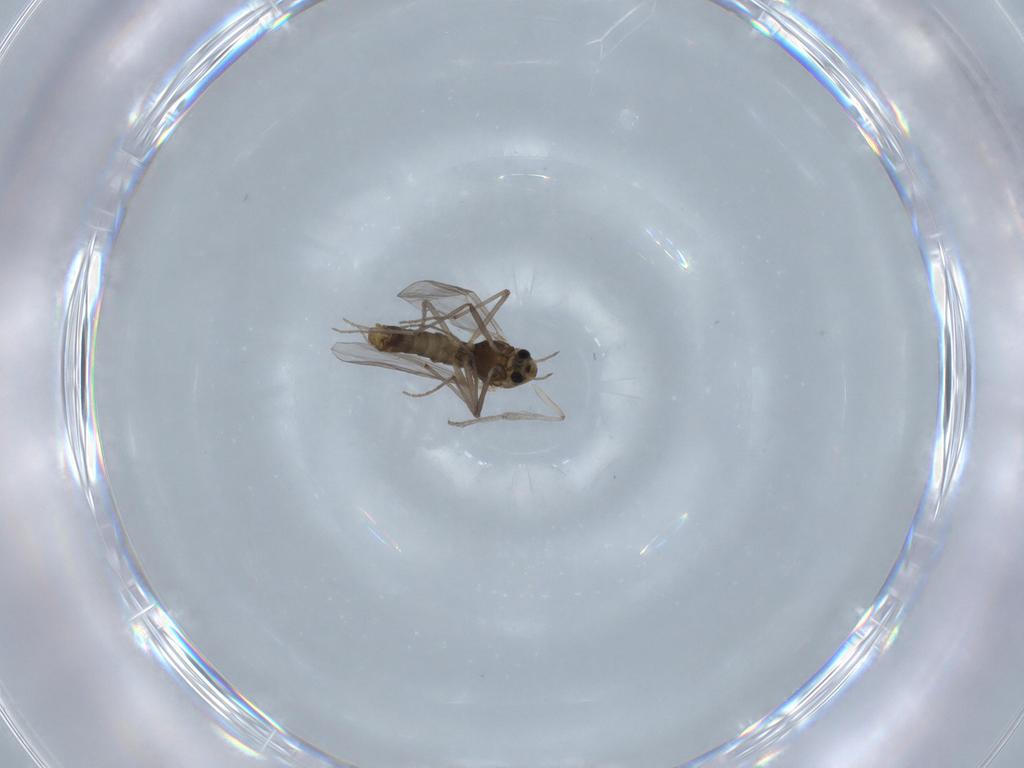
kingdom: Animalia
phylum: Arthropoda
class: Insecta
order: Diptera
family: Chironomidae
